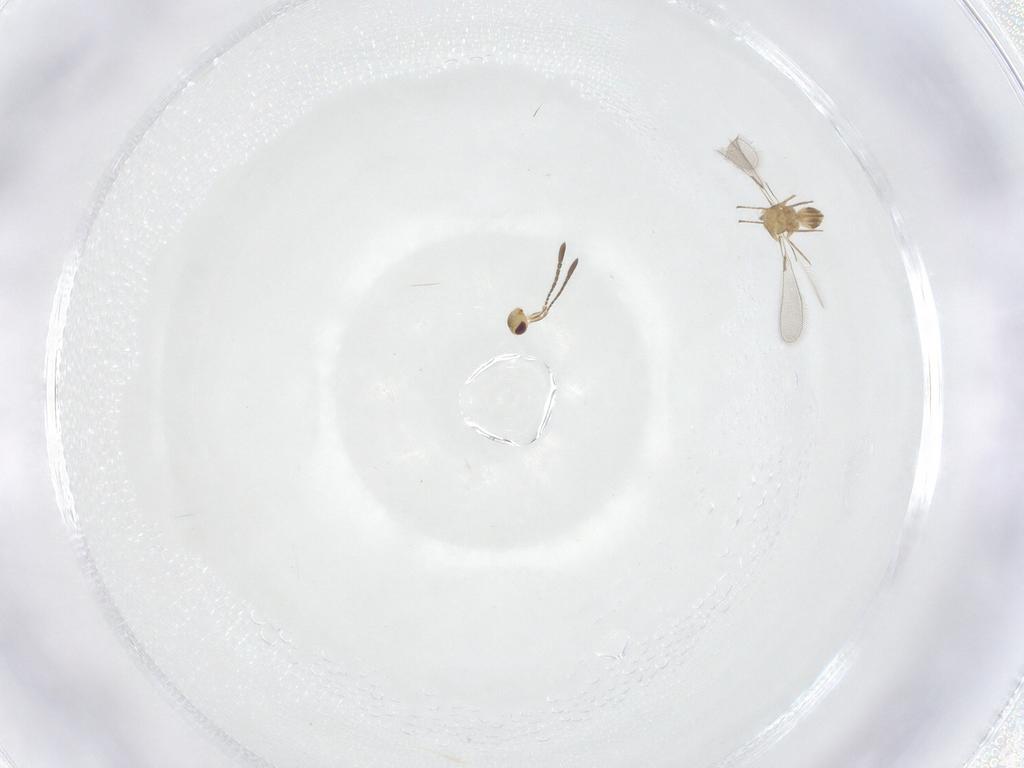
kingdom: Animalia
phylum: Arthropoda
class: Insecta
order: Hymenoptera
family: Mymaridae
